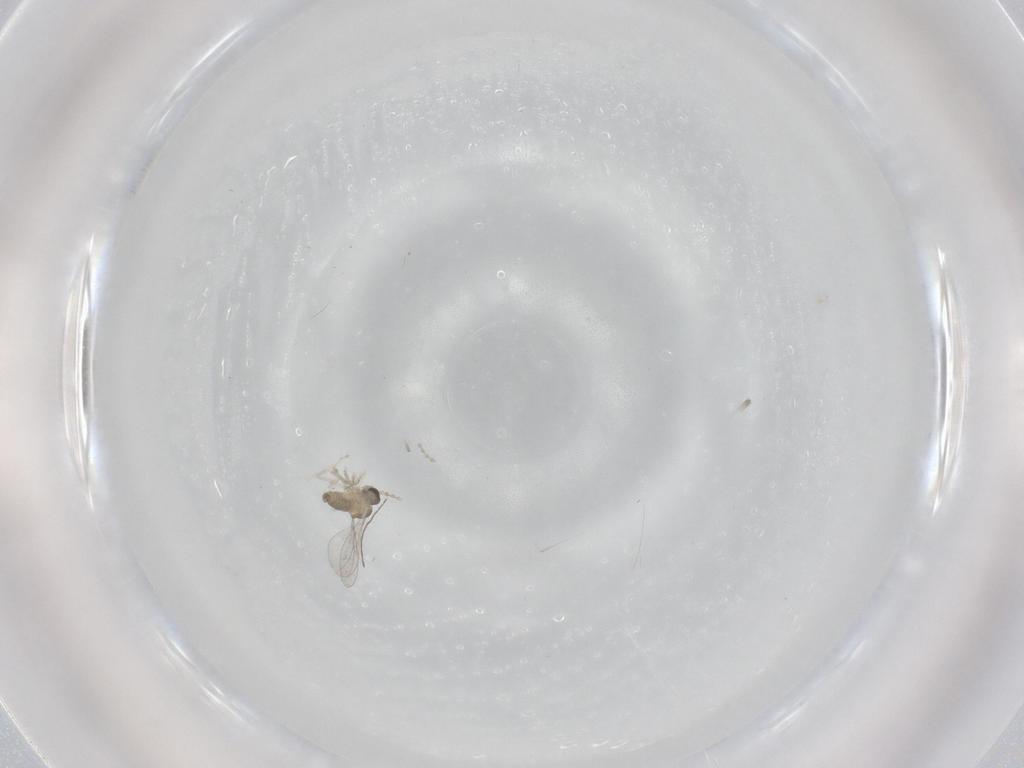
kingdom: Animalia
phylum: Arthropoda
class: Insecta
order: Diptera
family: Cecidomyiidae
